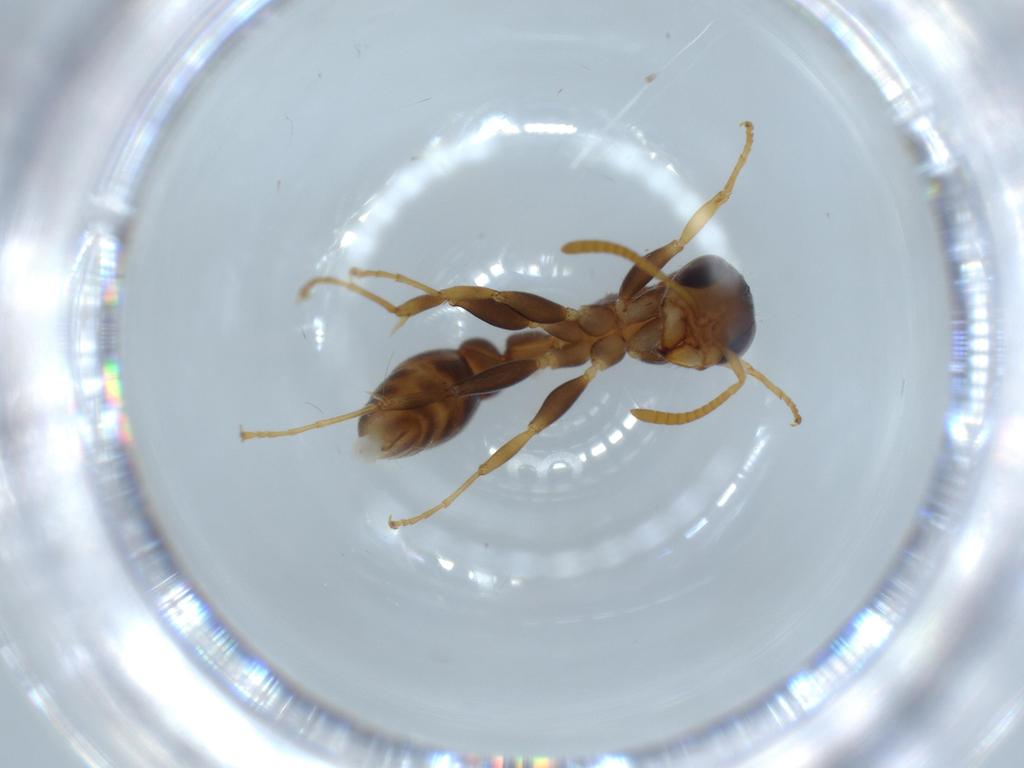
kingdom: Animalia
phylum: Arthropoda
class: Insecta
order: Hymenoptera
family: Formicidae
